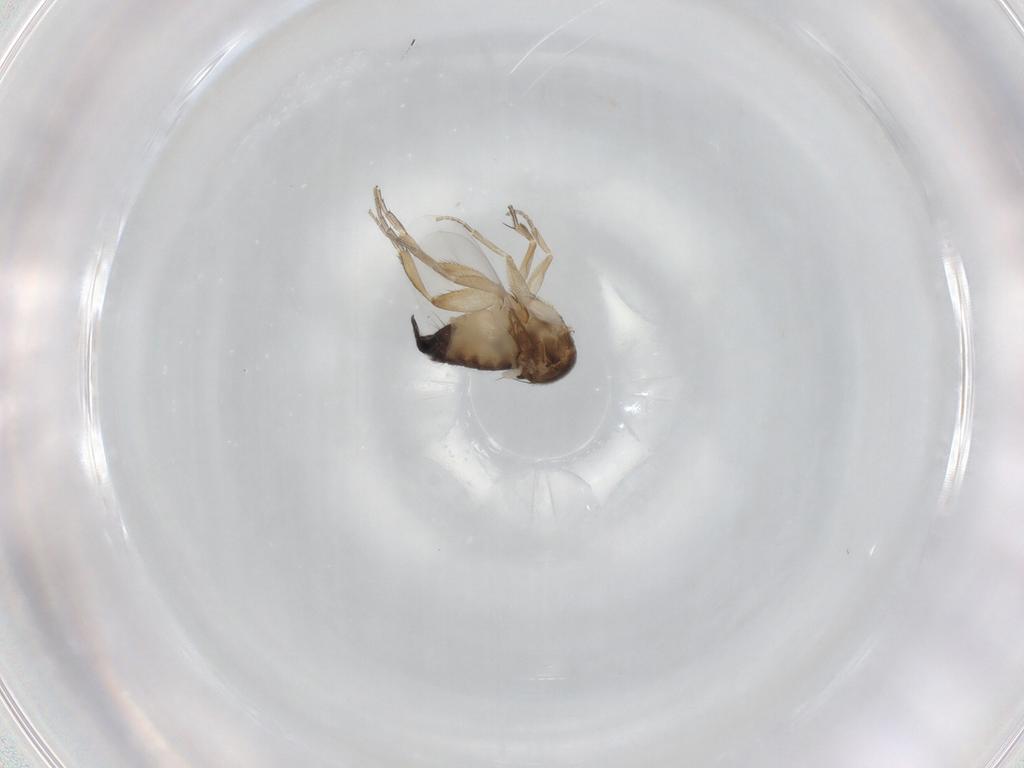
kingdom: Animalia
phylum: Arthropoda
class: Insecta
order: Diptera
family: Phoridae
